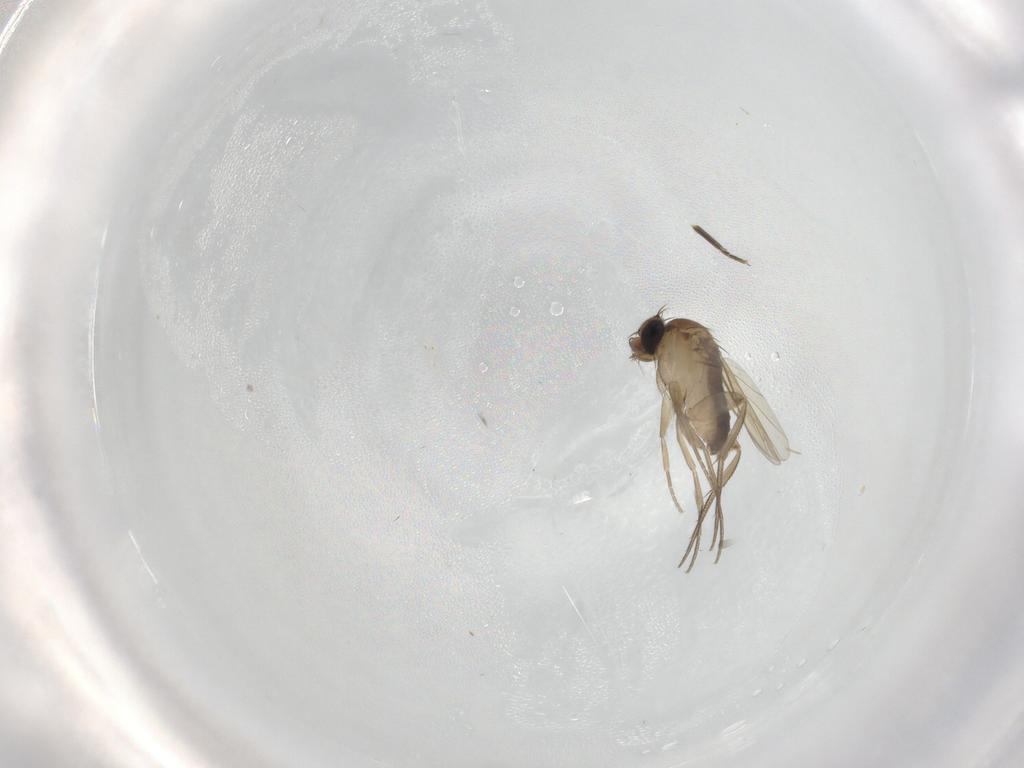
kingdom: Animalia
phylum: Arthropoda
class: Insecta
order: Diptera
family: Phoridae
